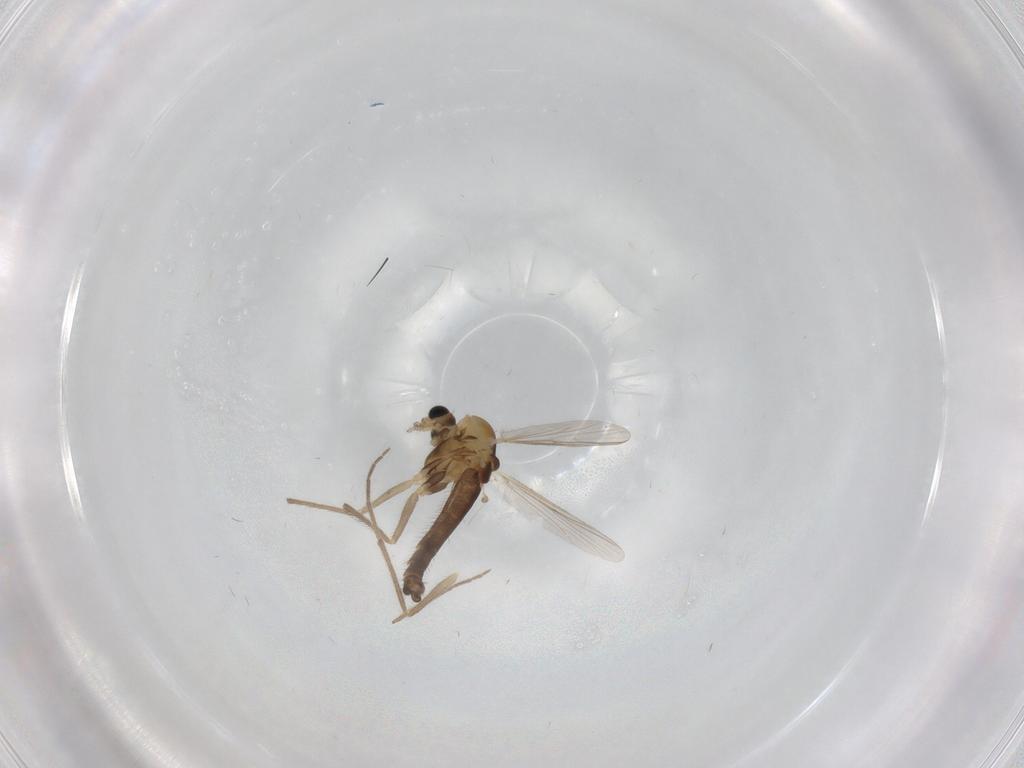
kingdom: Animalia
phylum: Arthropoda
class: Insecta
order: Diptera
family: Chironomidae
